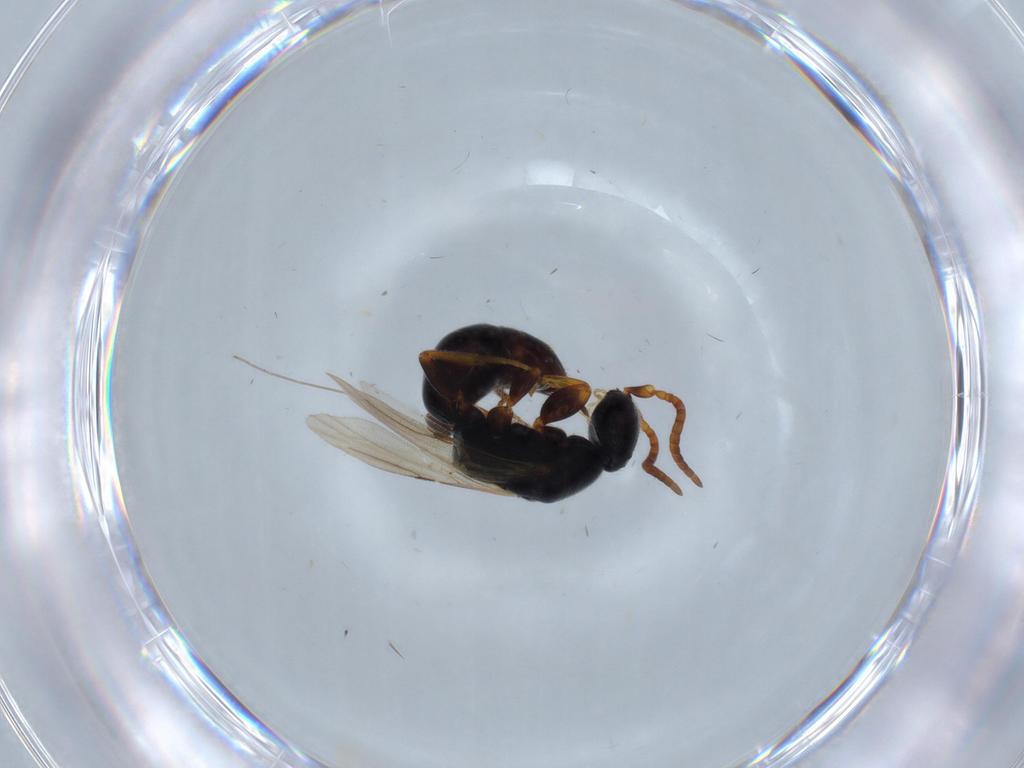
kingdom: Animalia
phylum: Arthropoda
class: Insecta
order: Hymenoptera
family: Bethylidae
